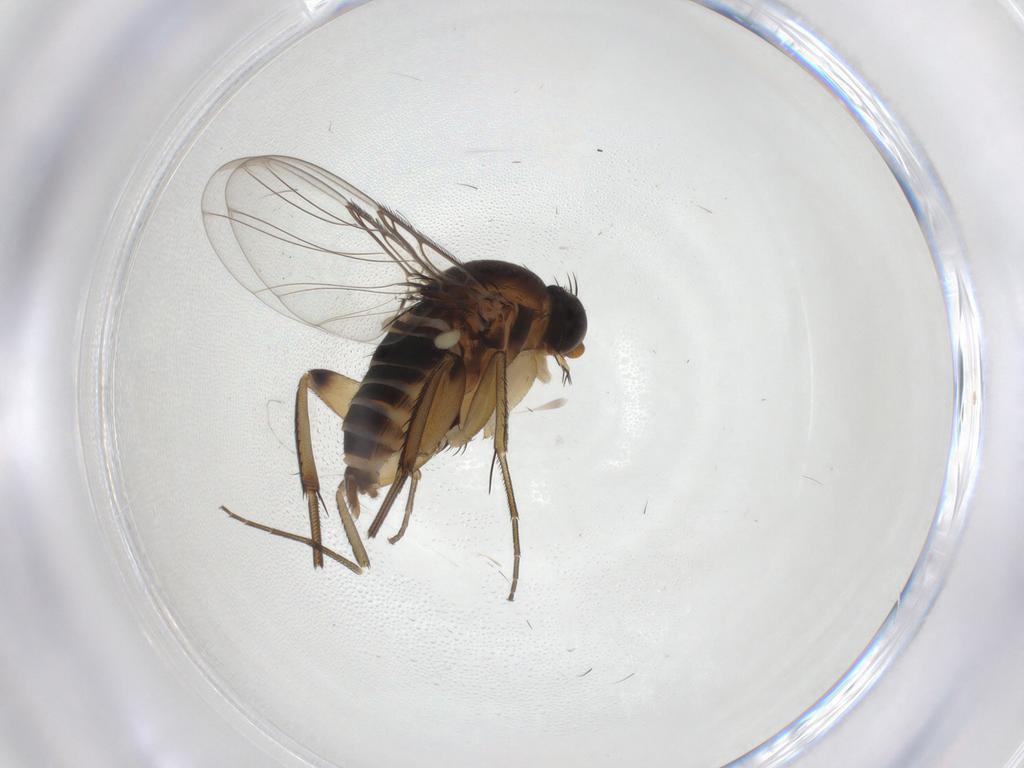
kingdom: Animalia
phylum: Arthropoda
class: Insecta
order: Diptera
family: Phoridae
